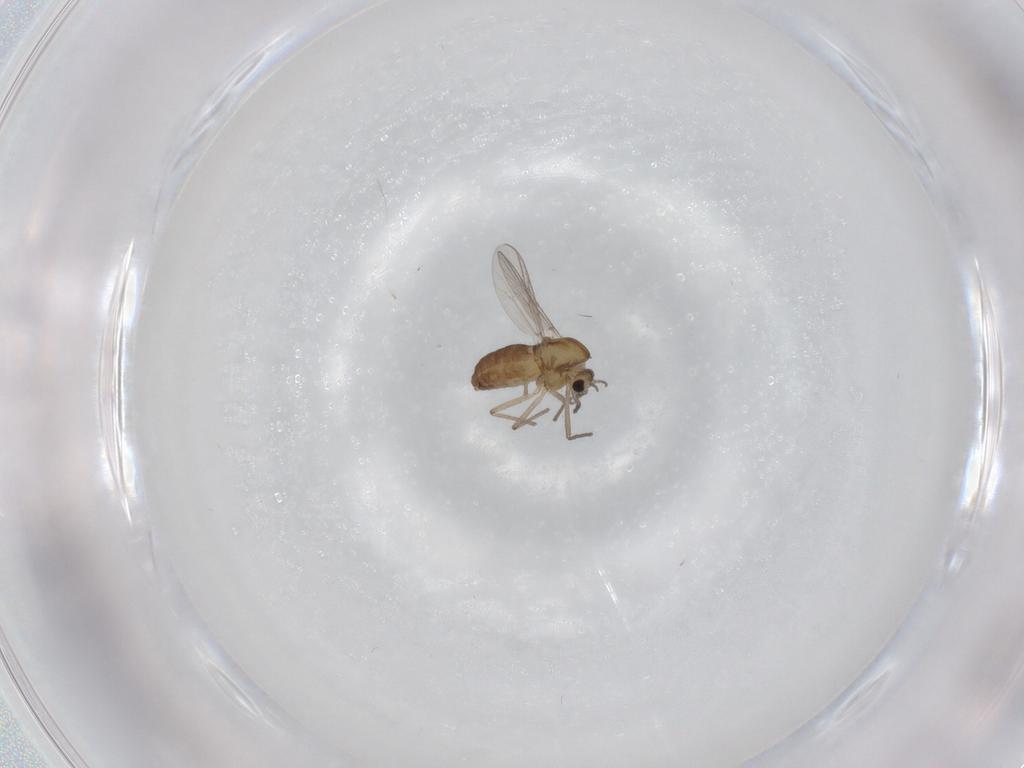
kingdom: Animalia
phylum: Arthropoda
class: Insecta
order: Diptera
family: Chironomidae
